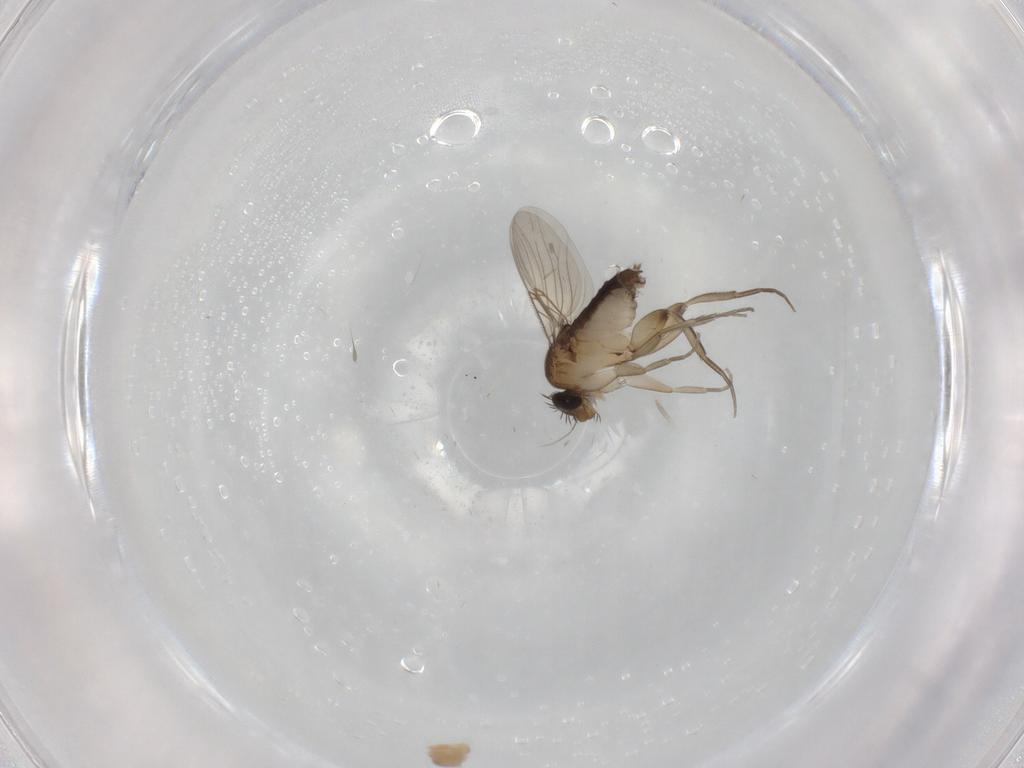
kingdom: Animalia
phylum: Arthropoda
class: Insecta
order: Diptera
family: Phoridae
